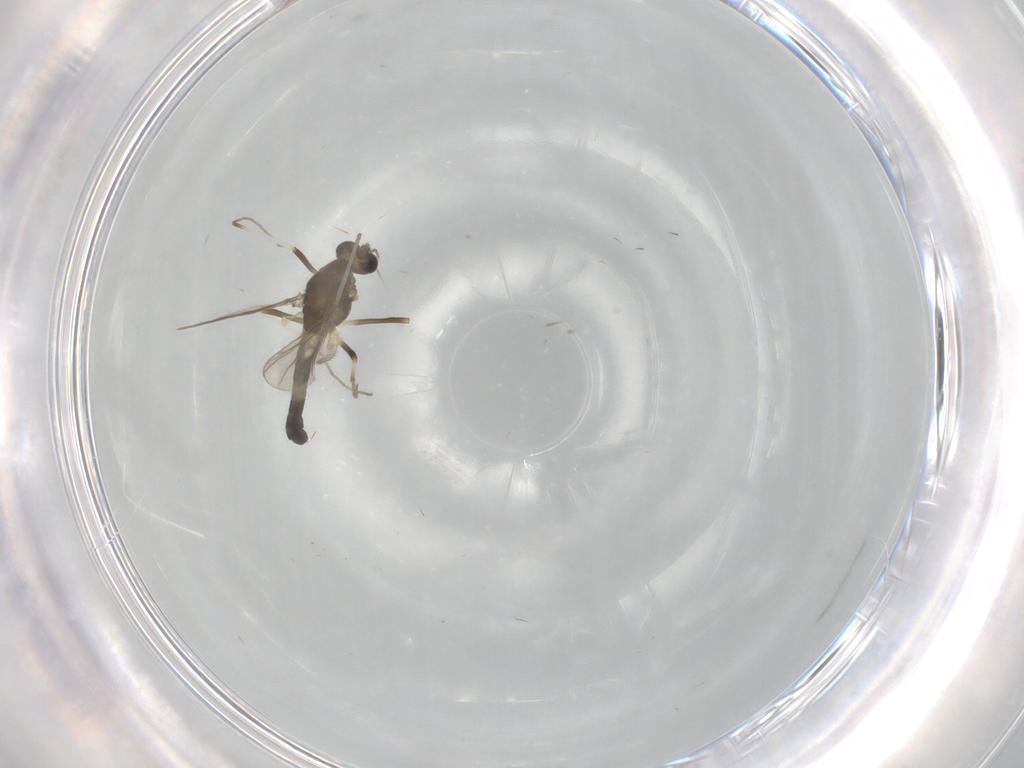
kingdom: Animalia
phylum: Arthropoda
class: Insecta
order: Diptera
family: Chironomidae
